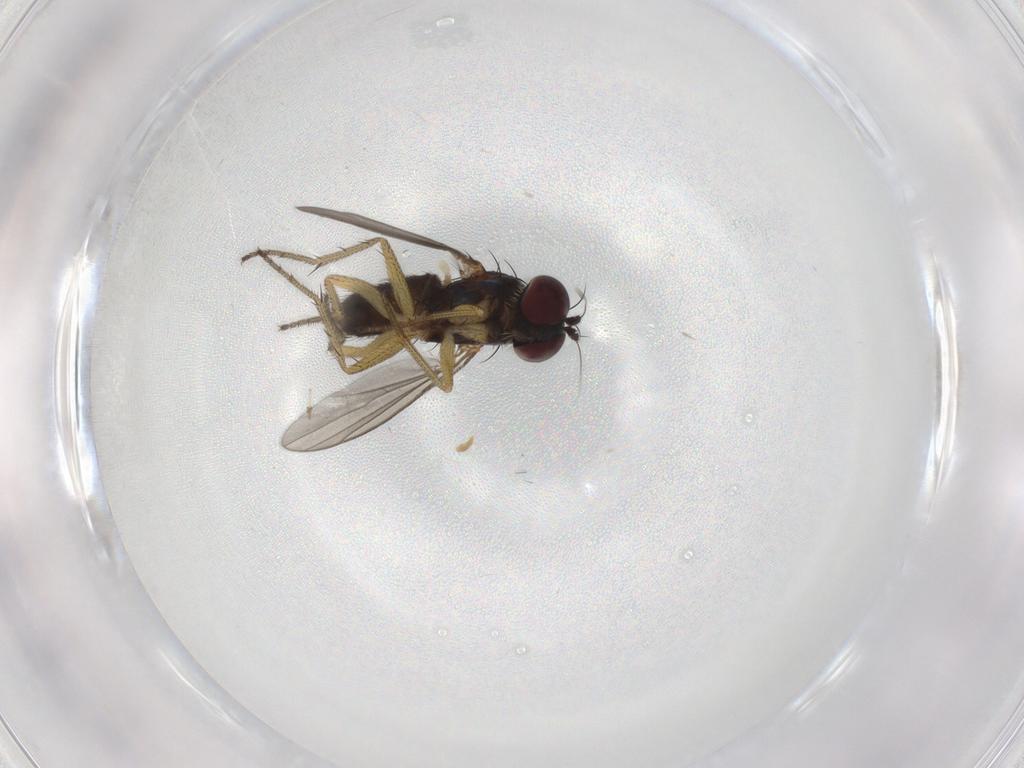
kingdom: Animalia
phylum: Arthropoda
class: Insecta
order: Diptera
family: Dolichopodidae
